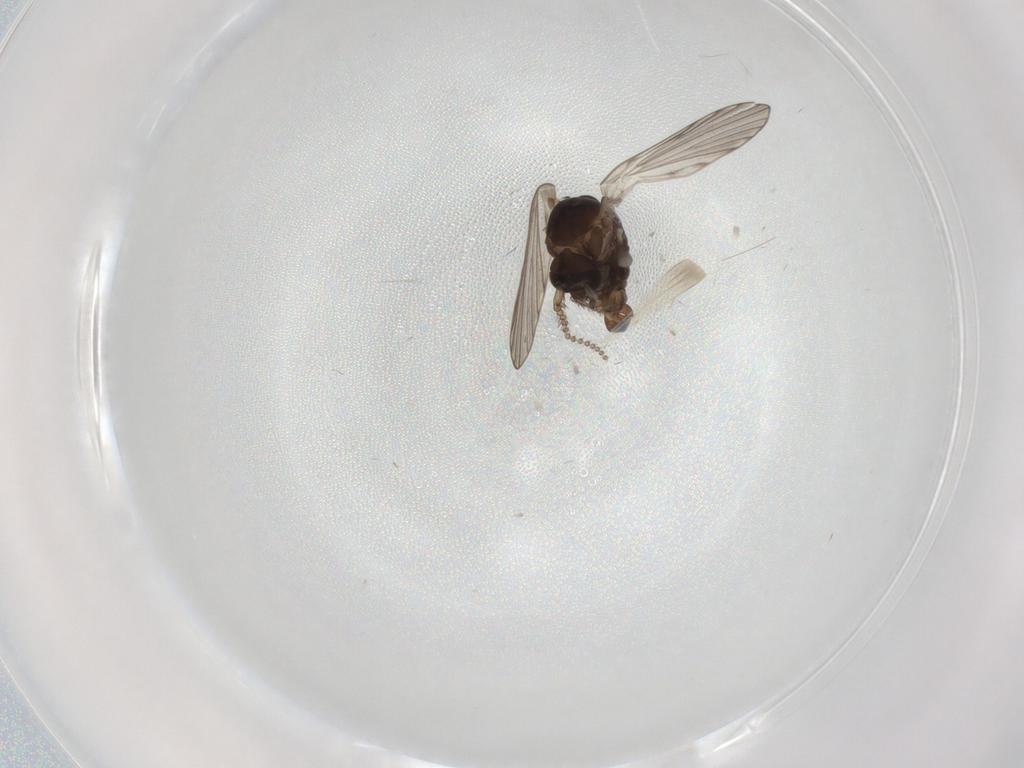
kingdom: Animalia
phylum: Arthropoda
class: Insecta
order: Diptera
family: Psychodidae
